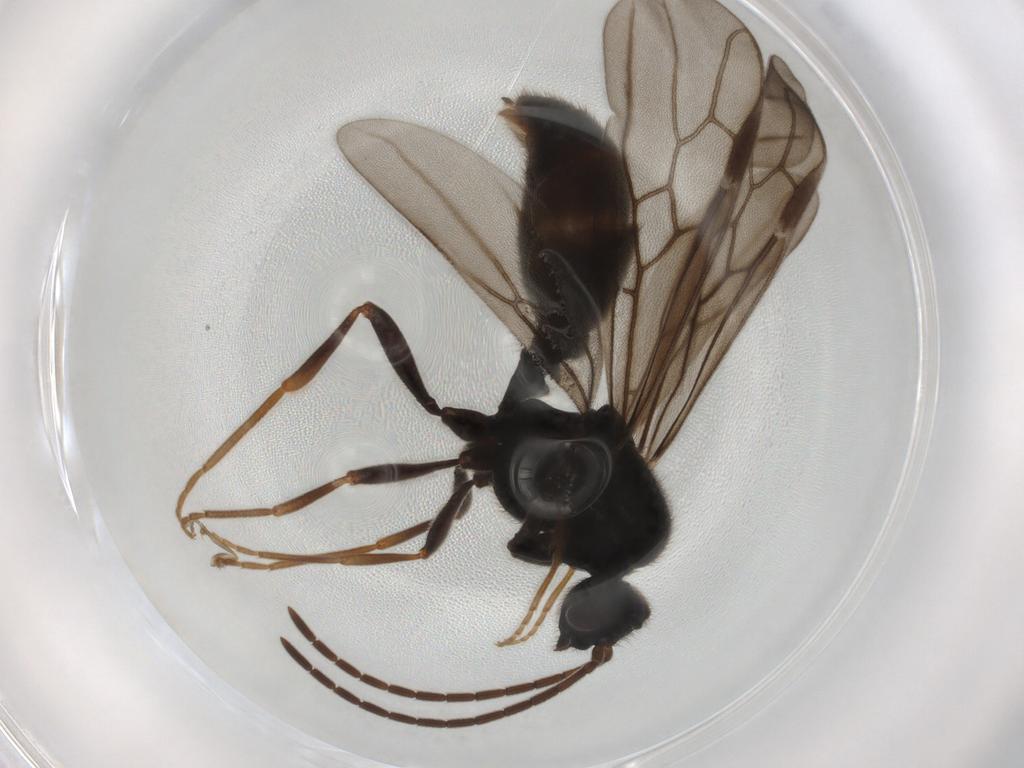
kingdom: Animalia
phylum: Arthropoda
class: Insecta
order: Hymenoptera
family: Formicidae
